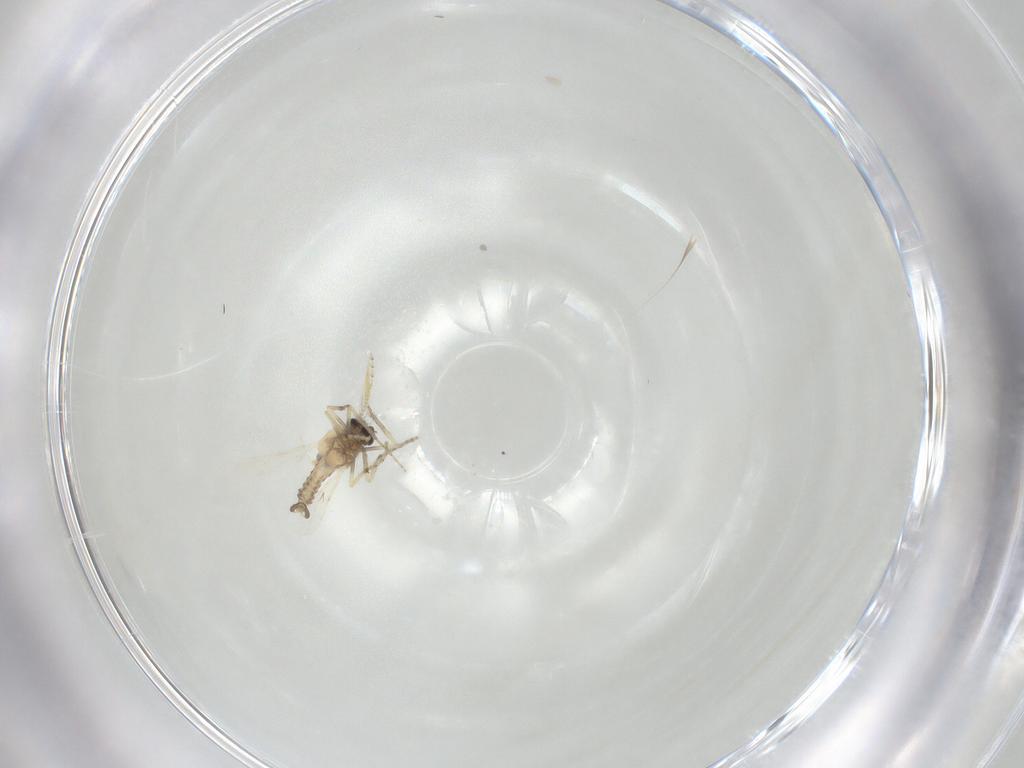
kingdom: Animalia
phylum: Arthropoda
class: Insecta
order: Diptera
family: Ceratopogonidae
